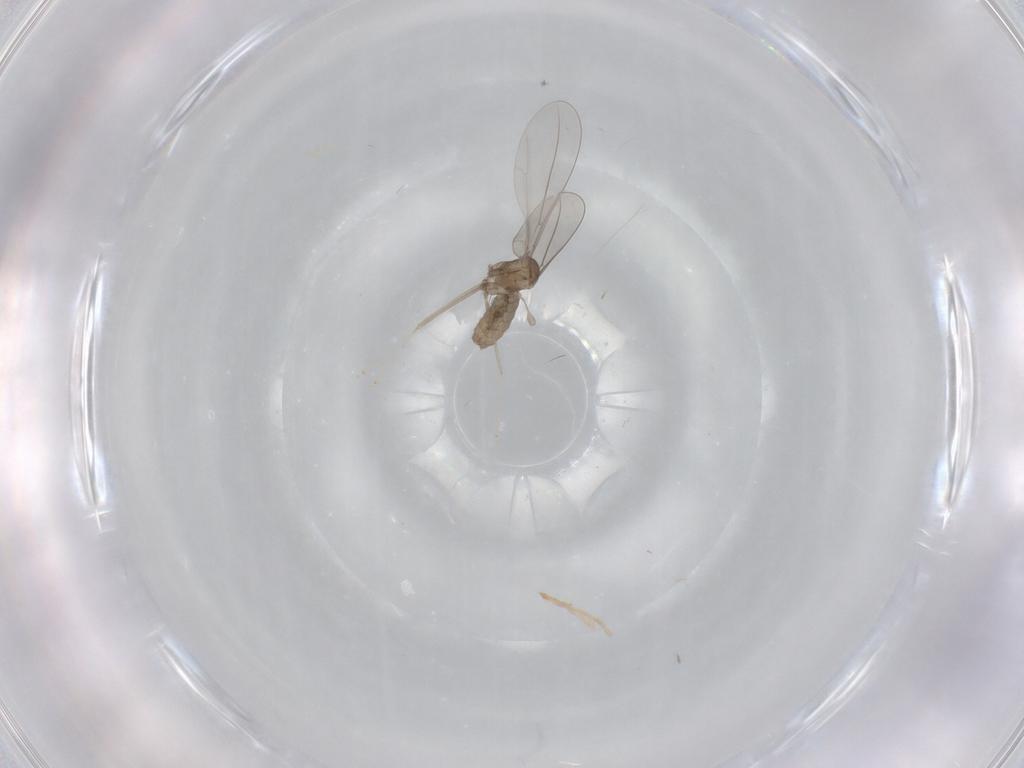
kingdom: Animalia
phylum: Arthropoda
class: Insecta
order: Diptera
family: Cecidomyiidae
